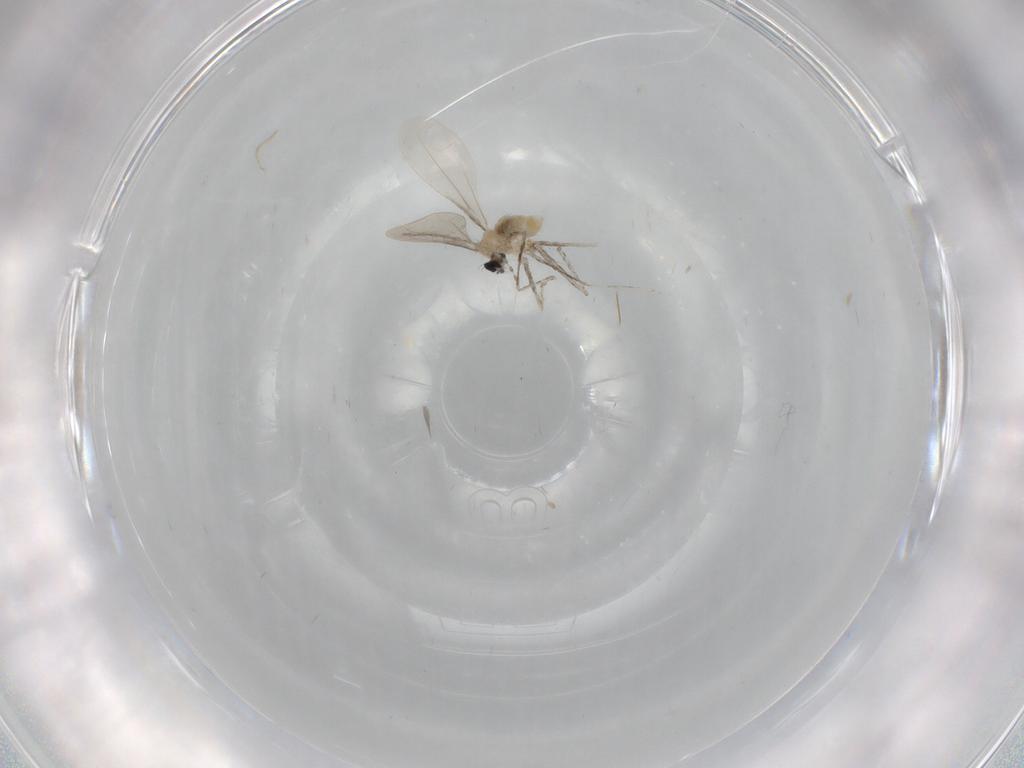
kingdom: Animalia
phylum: Arthropoda
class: Insecta
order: Diptera
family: Cecidomyiidae
